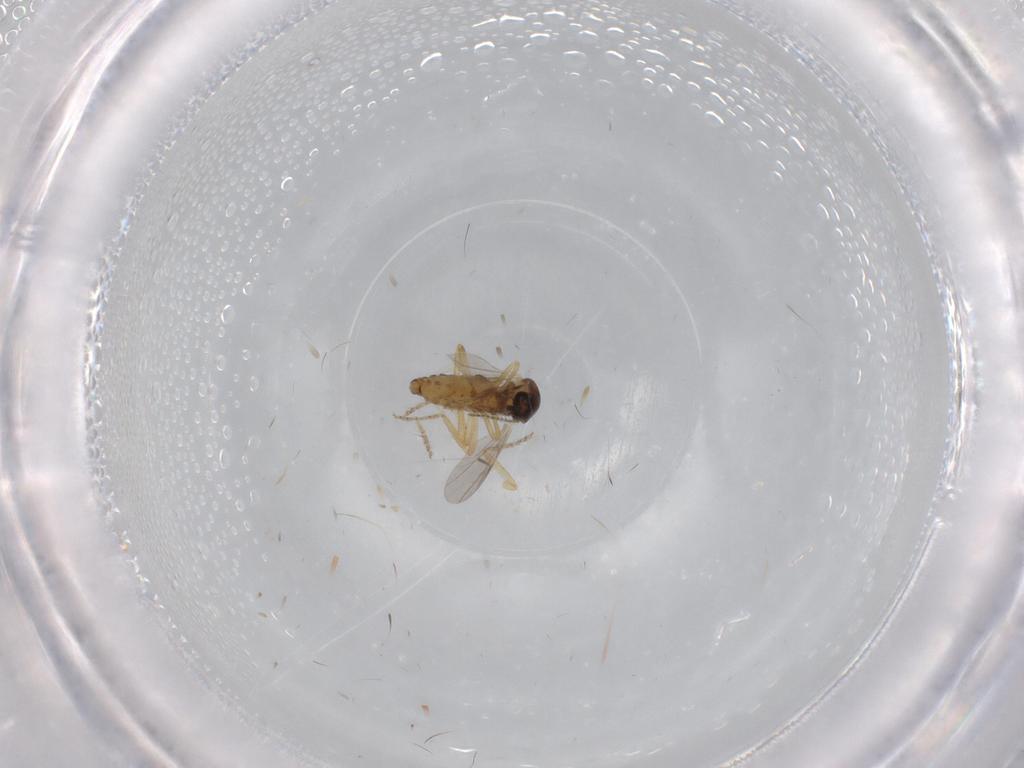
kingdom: Animalia
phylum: Arthropoda
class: Insecta
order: Diptera
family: Ceratopogonidae
